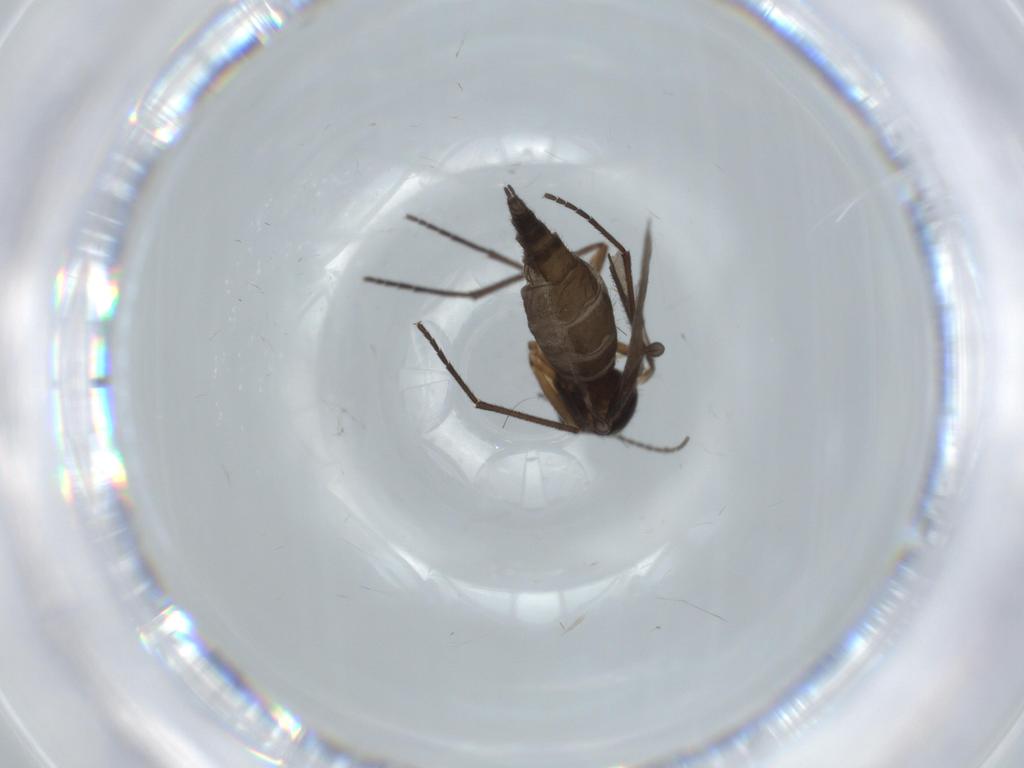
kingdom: Animalia
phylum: Arthropoda
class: Insecta
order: Diptera
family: Sciaridae
